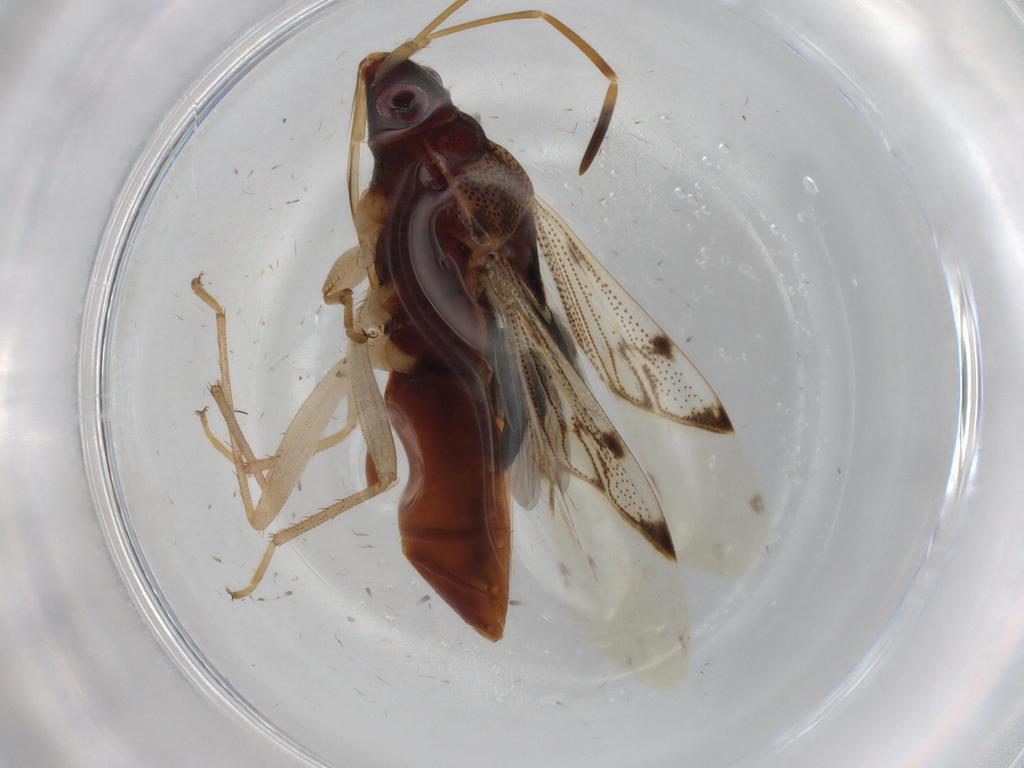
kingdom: Animalia
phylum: Arthropoda
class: Insecta
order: Hemiptera
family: Rhyparochromidae
